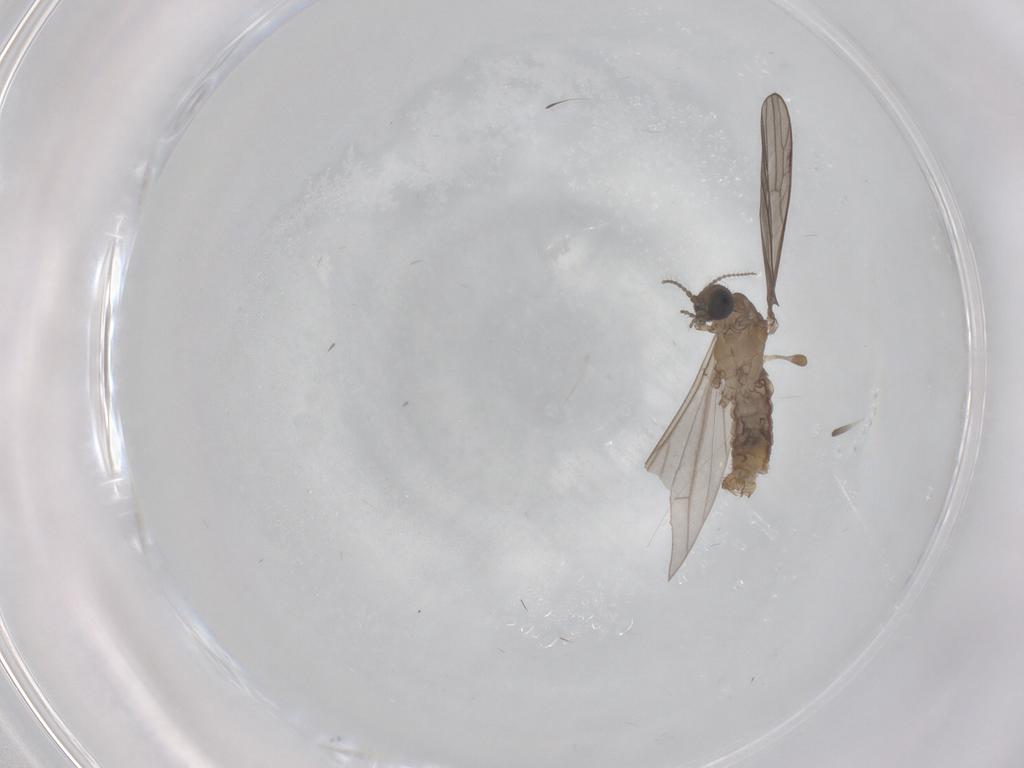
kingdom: Animalia
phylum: Arthropoda
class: Insecta
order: Diptera
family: Limoniidae
